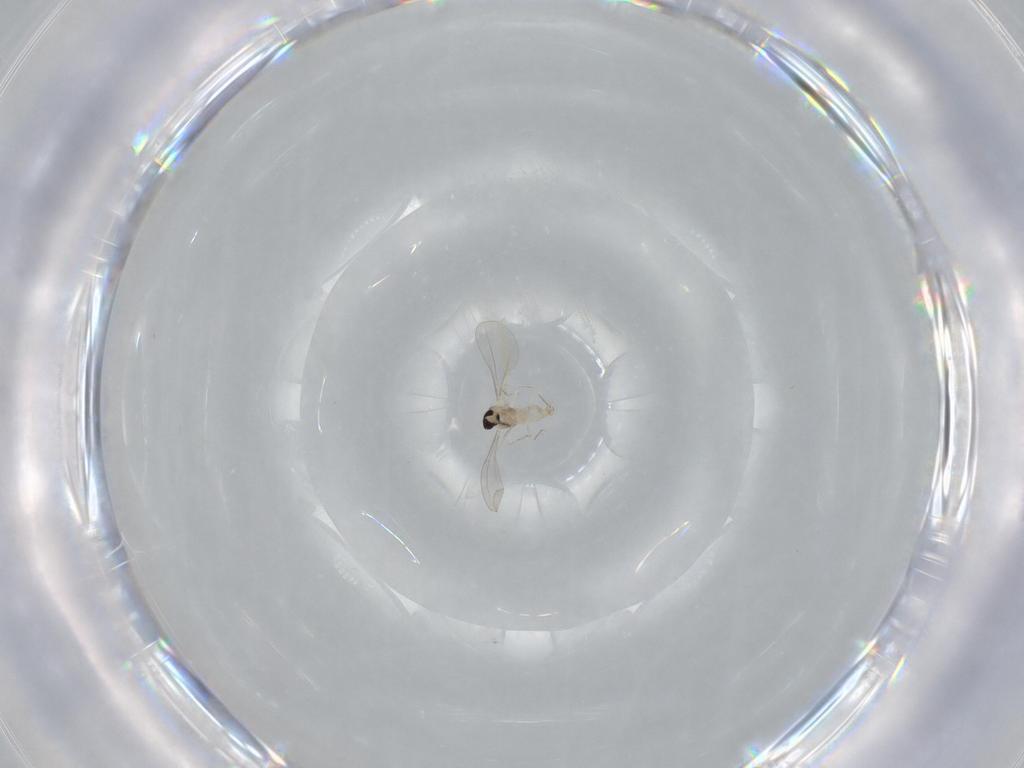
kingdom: Animalia
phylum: Arthropoda
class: Insecta
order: Diptera
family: Cecidomyiidae
